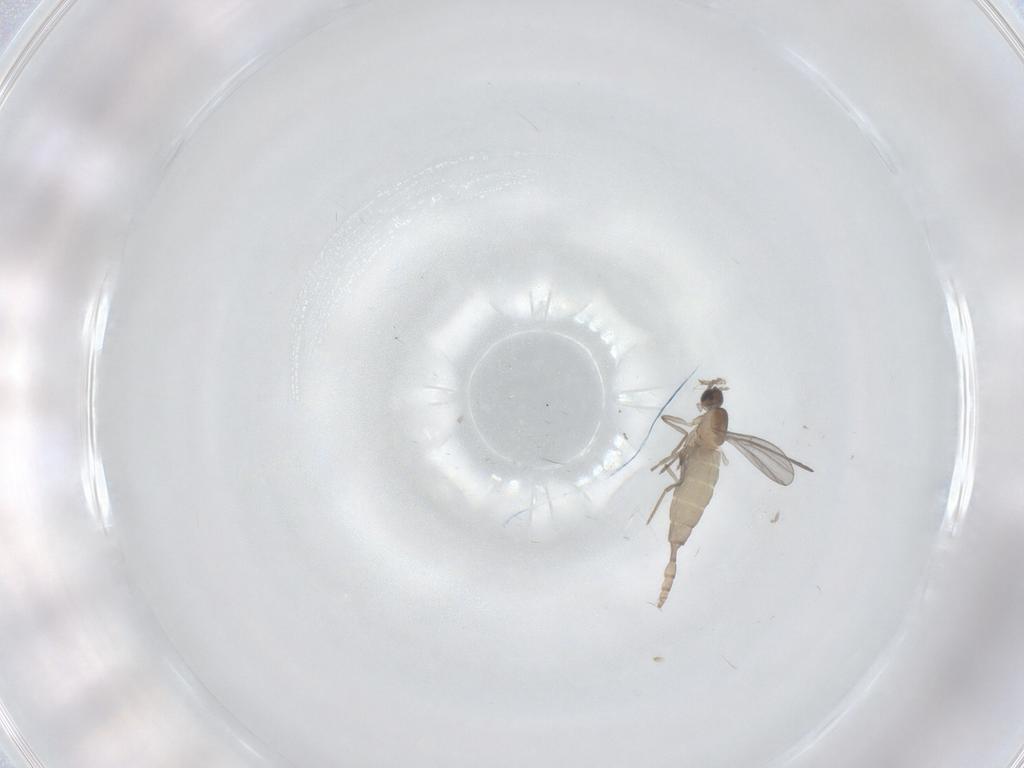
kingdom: Animalia
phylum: Arthropoda
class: Insecta
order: Diptera
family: Cecidomyiidae
